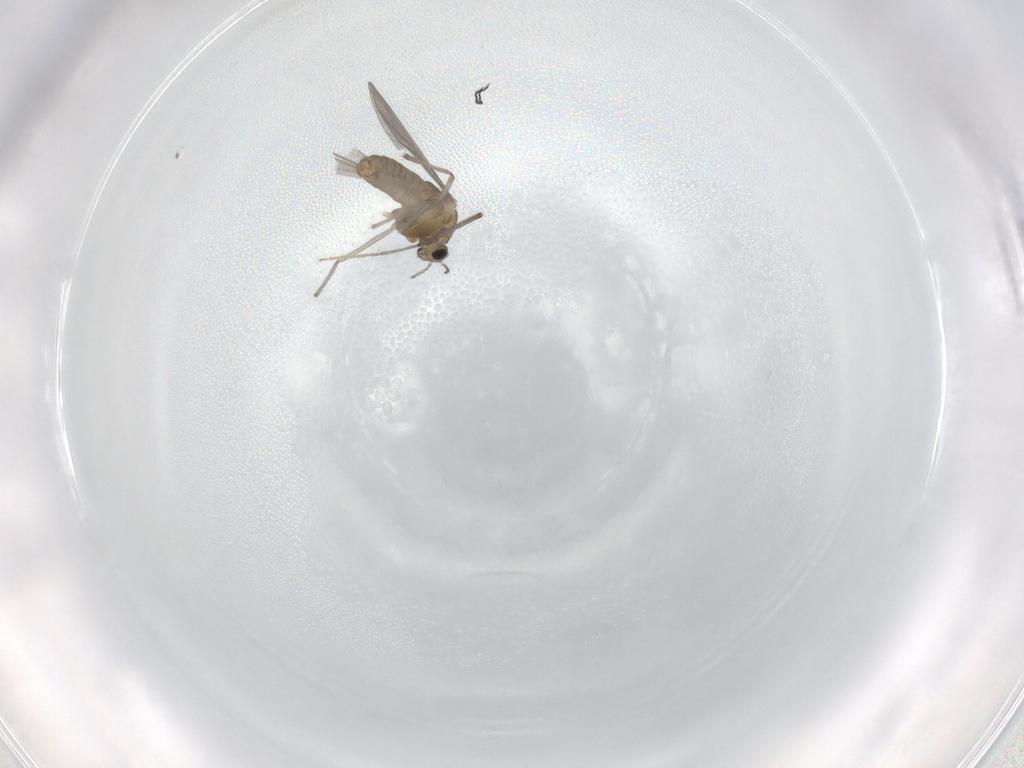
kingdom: Animalia
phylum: Arthropoda
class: Insecta
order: Diptera
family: Chironomidae
